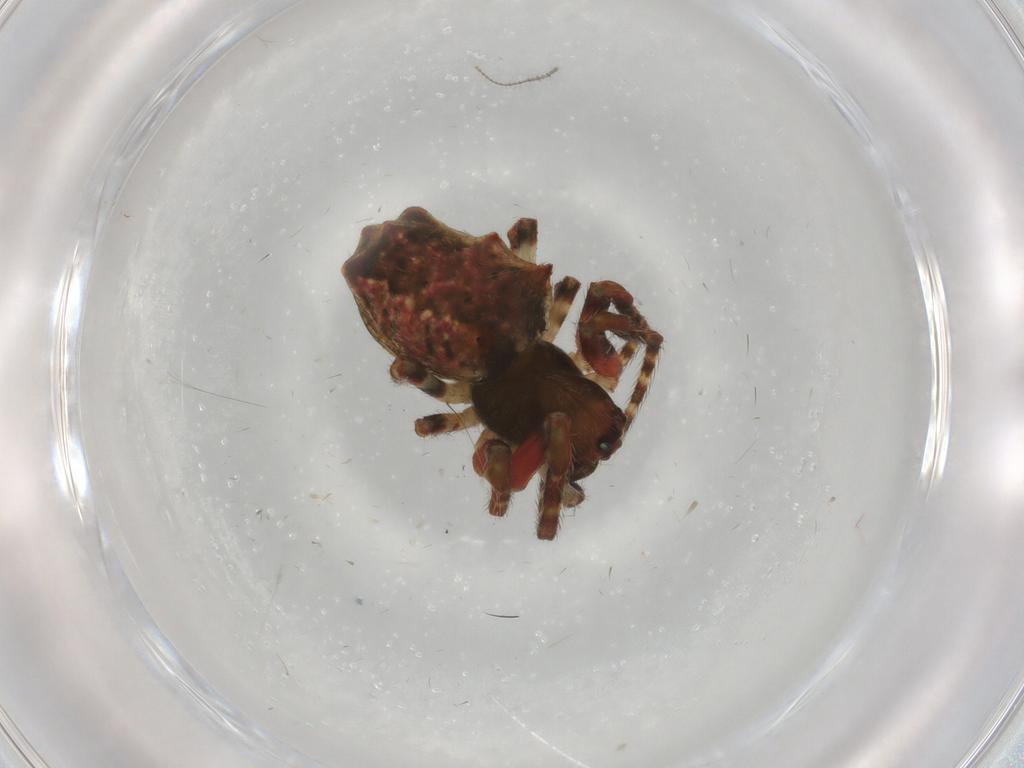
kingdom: Animalia
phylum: Arthropoda
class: Arachnida
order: Araneae
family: Araneidae
